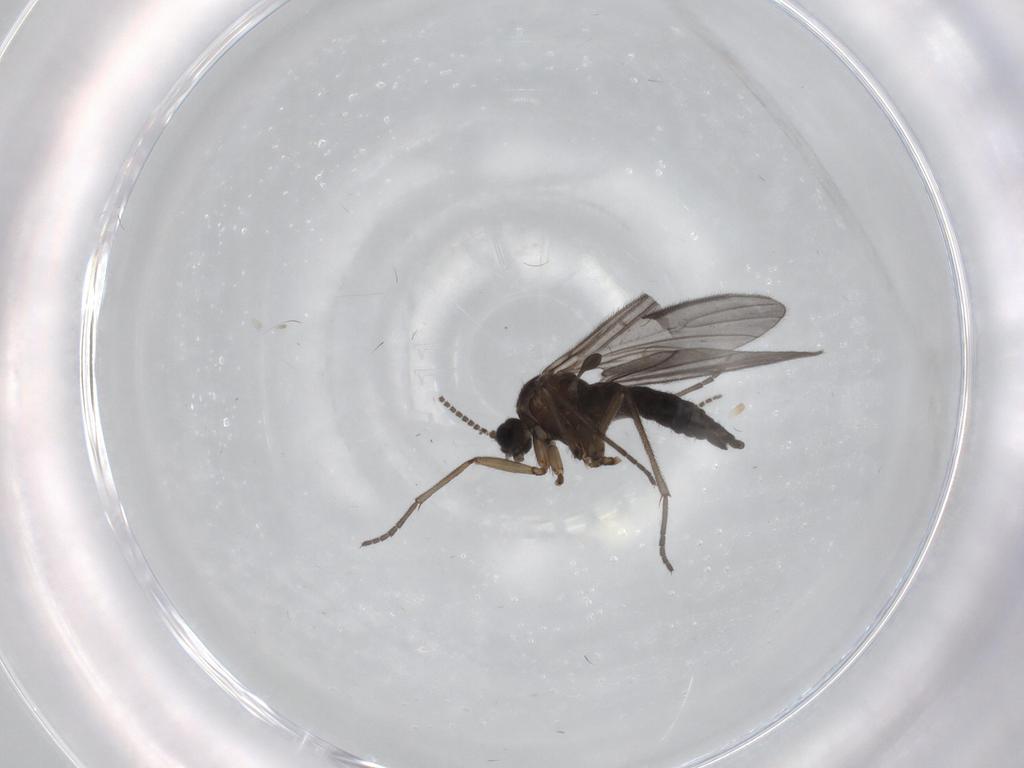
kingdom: Animalia
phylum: Arthropoda
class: Insecta
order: Diptera
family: Sciaridae
